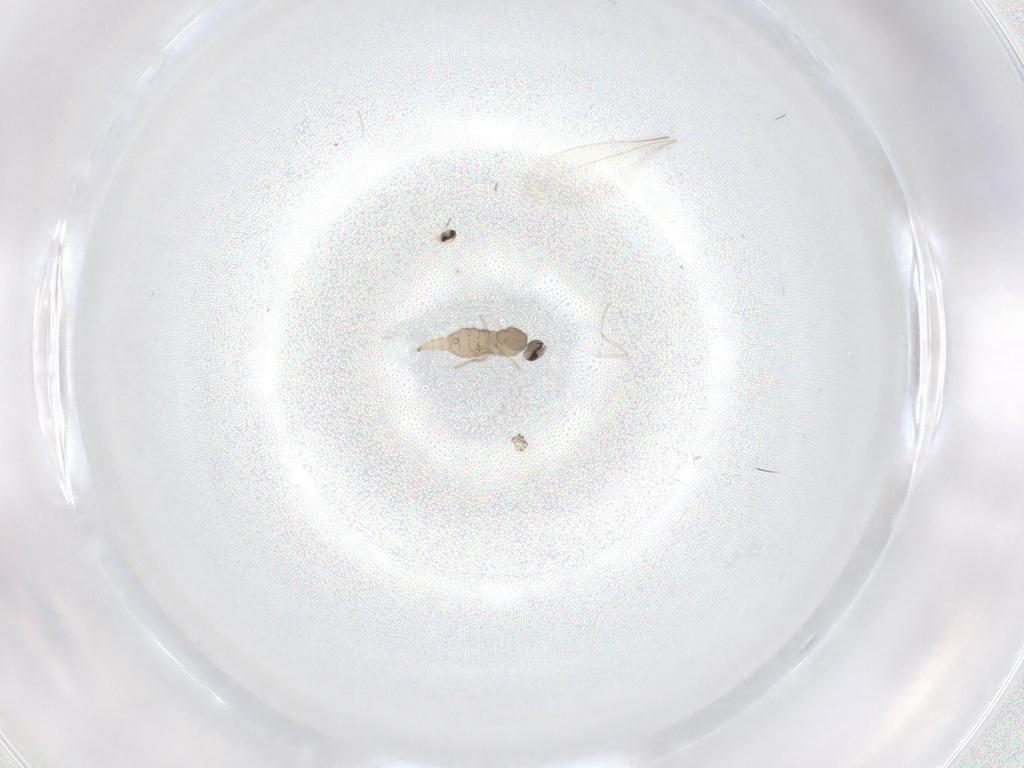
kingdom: Animalia
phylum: Arthropoda
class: Insecta
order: Diptera
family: Cecidomyiidae
